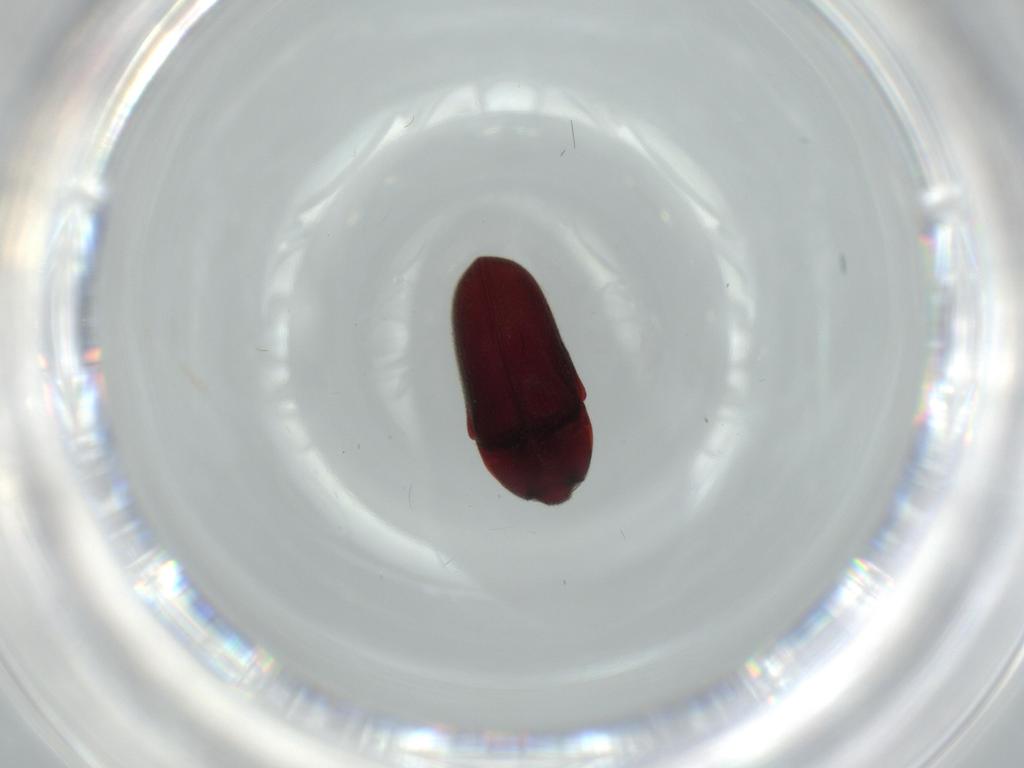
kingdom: Animalia
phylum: Arthropoda
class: Insecta
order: Coleoptera
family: Throscidae
